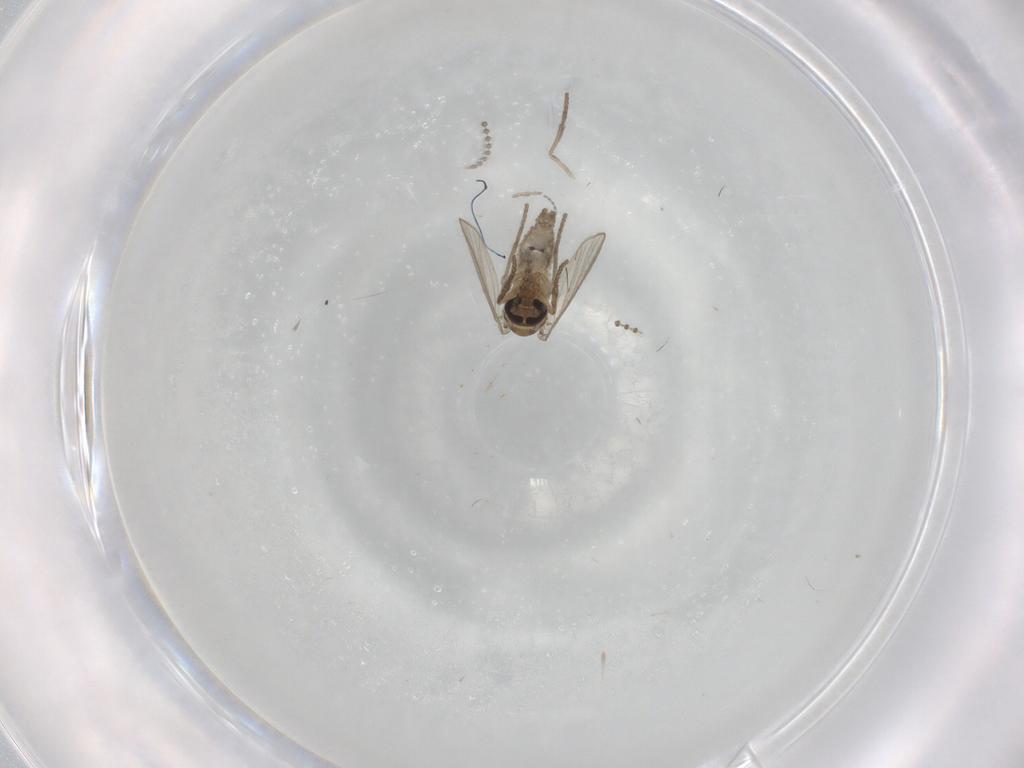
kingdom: Animalia
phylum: Arthropoda
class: Insecta
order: Diptera
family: Psychodidae
